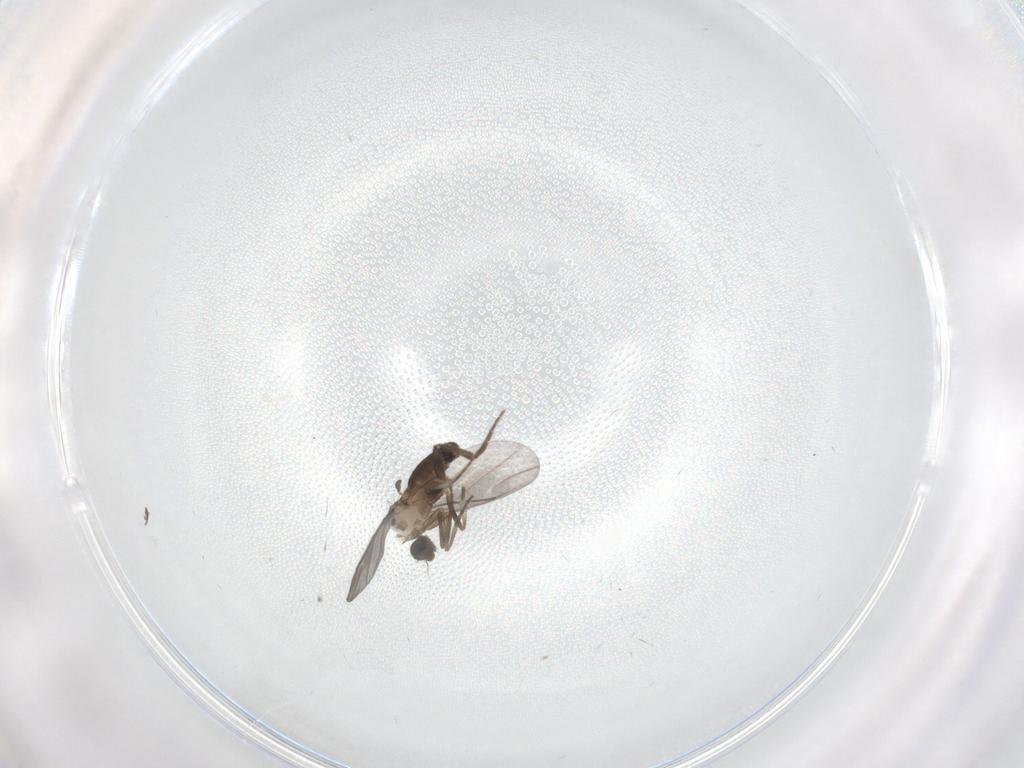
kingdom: Animalia
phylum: Arthropoda
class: Insecta
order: Diptera
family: Phoridae
